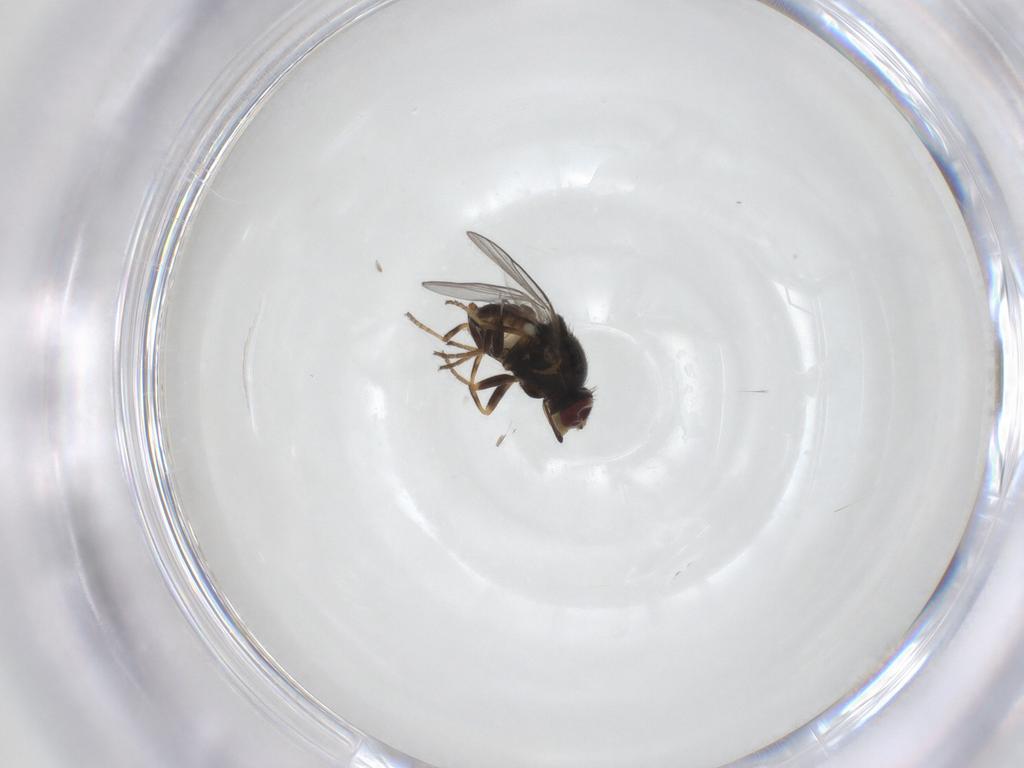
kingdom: Animalia
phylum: Arthropoda
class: Insecta
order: Diptera
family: Chloropidae
